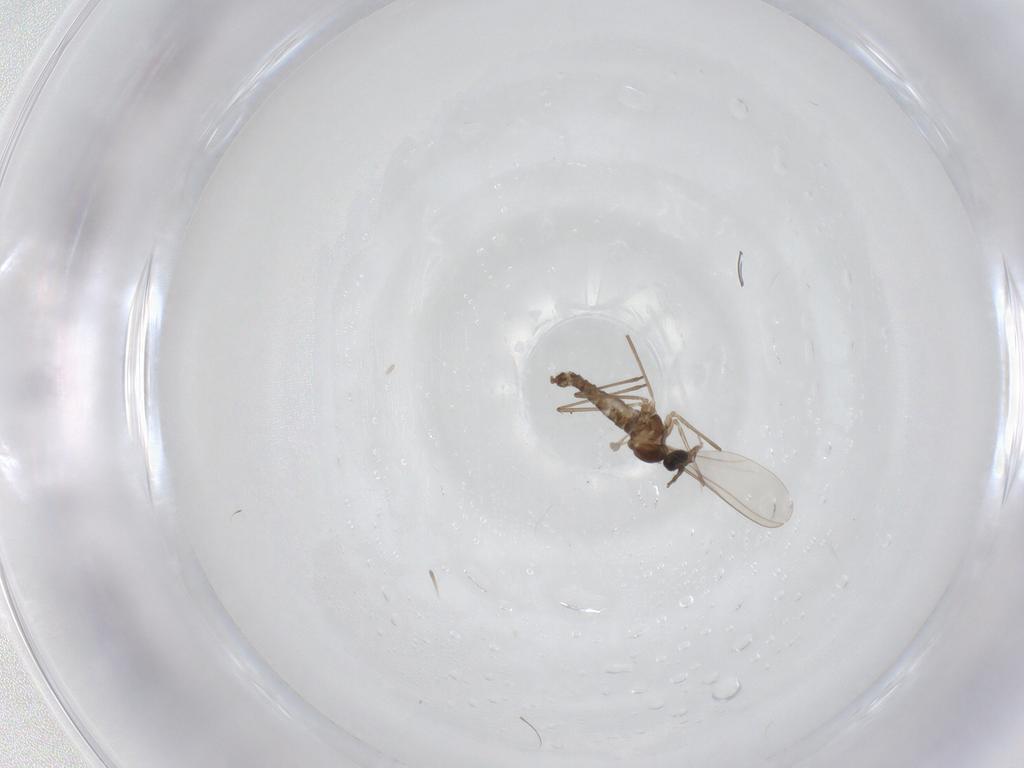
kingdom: Animalia
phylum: Arthropoda
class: Insecta
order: Diptera
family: Cecidomyiidae
